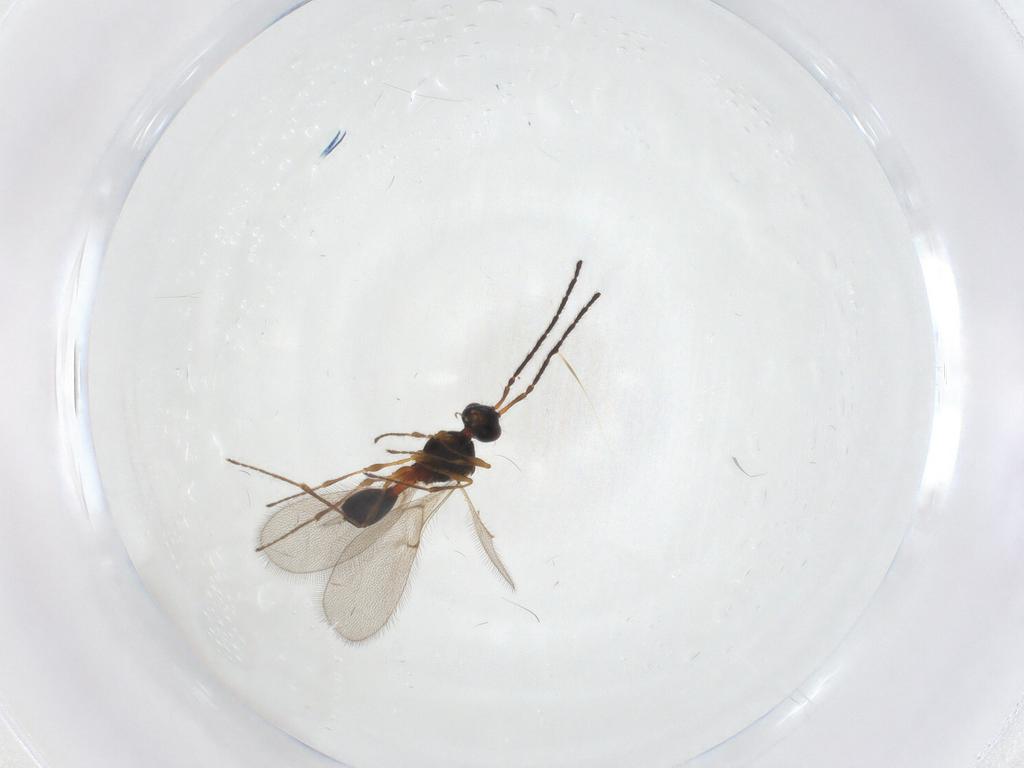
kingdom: Animalia
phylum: Arthropoda
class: Insecta
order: Hymenoptera
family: Diapriidae
